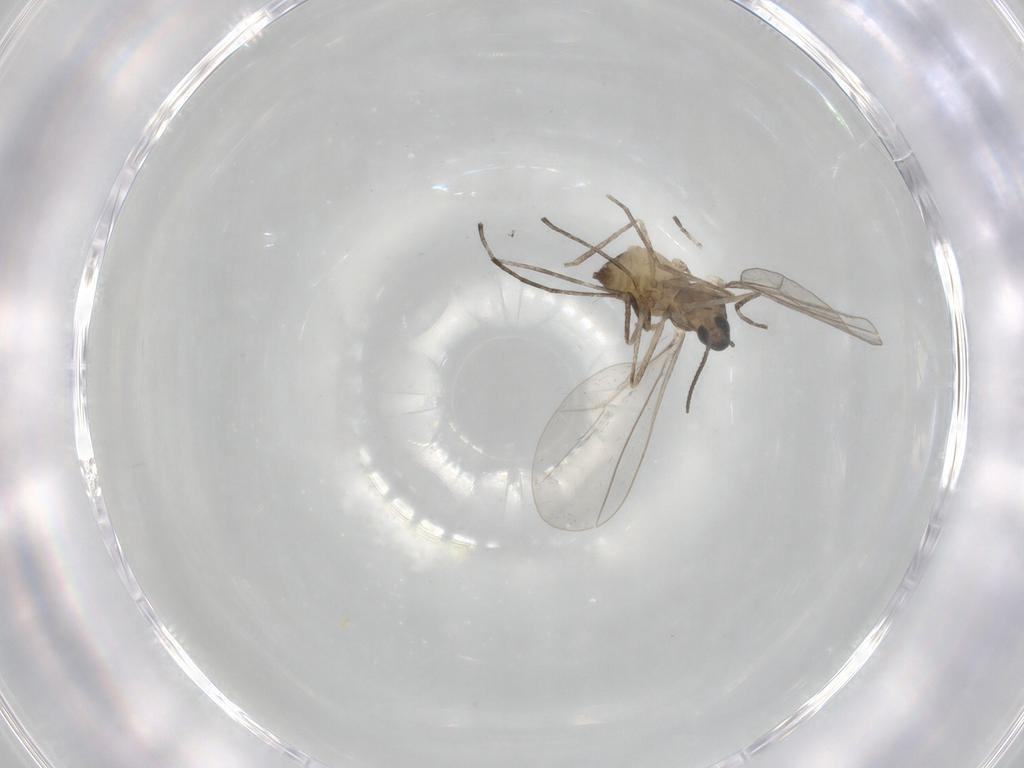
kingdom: Animalia
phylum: Arthropoda
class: Insecta
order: Diptera
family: Cecidomyiidae
